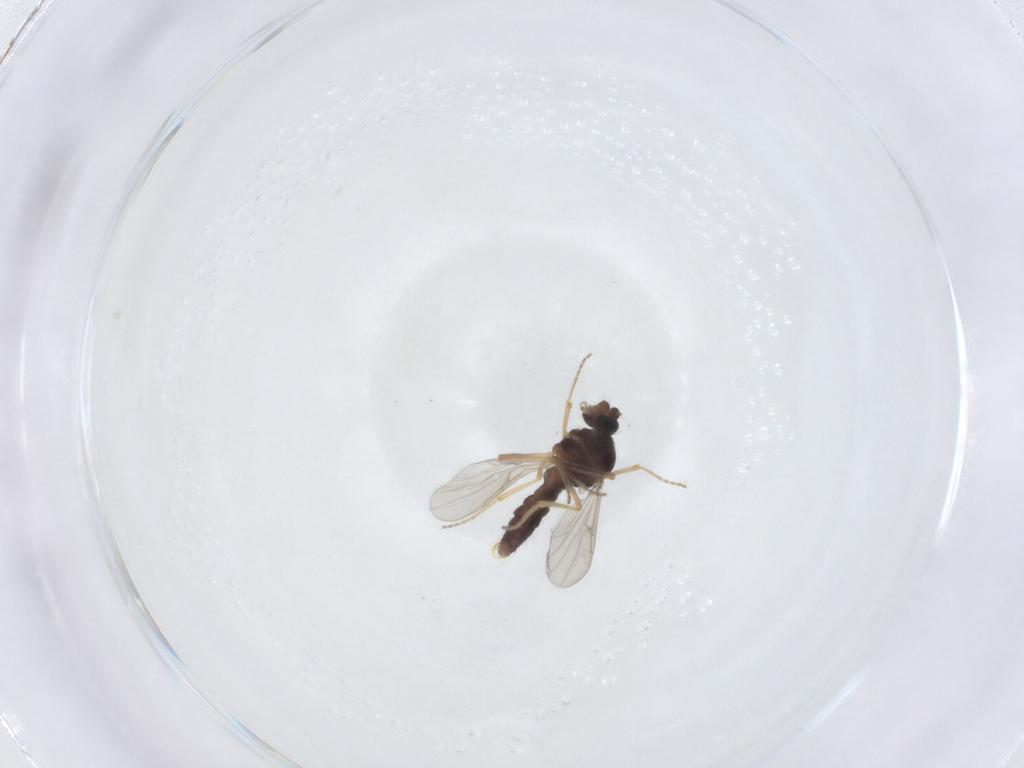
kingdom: Animalia
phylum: Arthropoda
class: Insecta
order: Diptera
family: Ceratopogonidae
